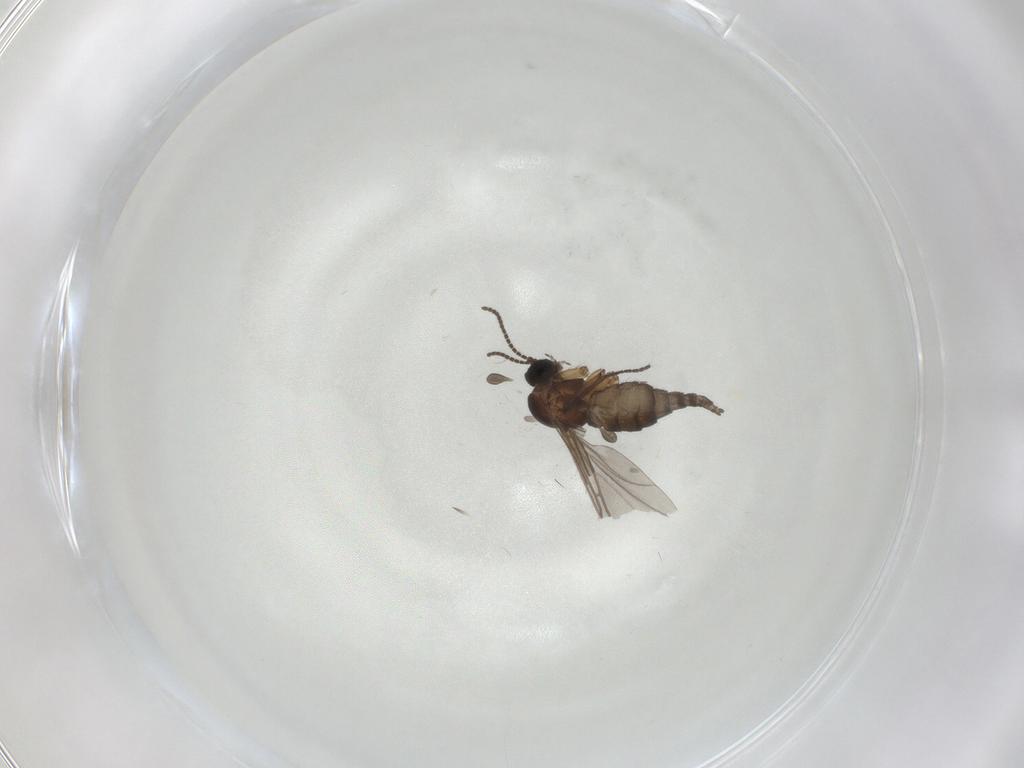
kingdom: Animalia
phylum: Arthropoda
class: Insecta
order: Diptera
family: Sciaridae
